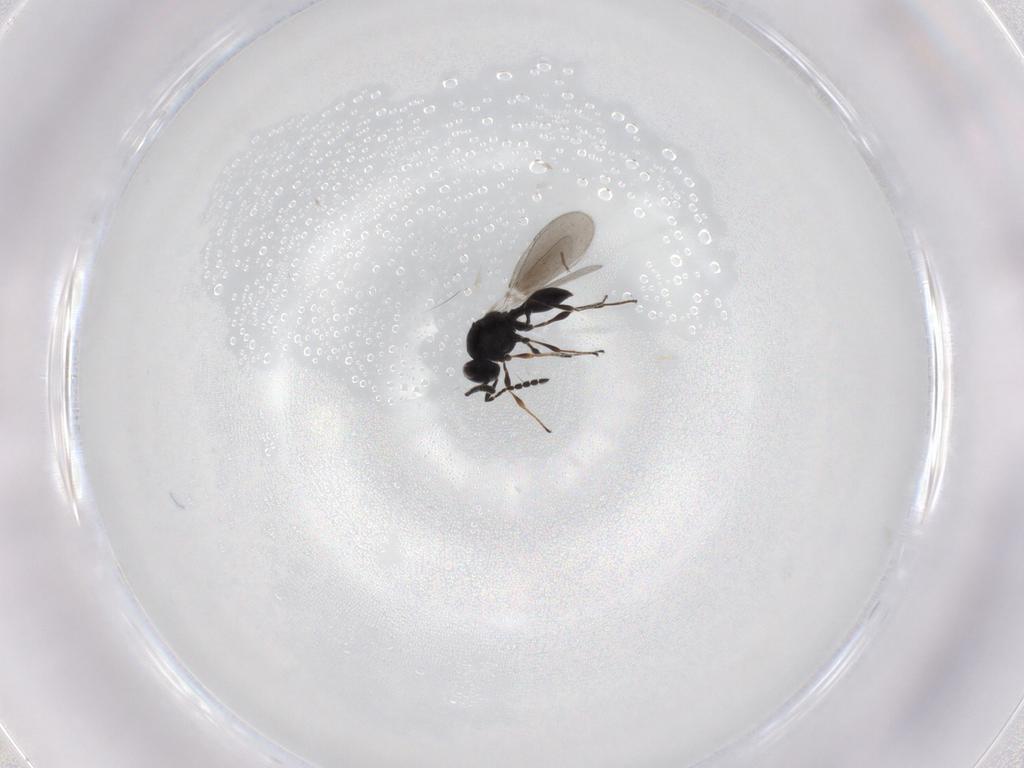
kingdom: Animalia
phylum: Arthropoda
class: Insecta
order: Hymenoptera
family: Platygastridae
